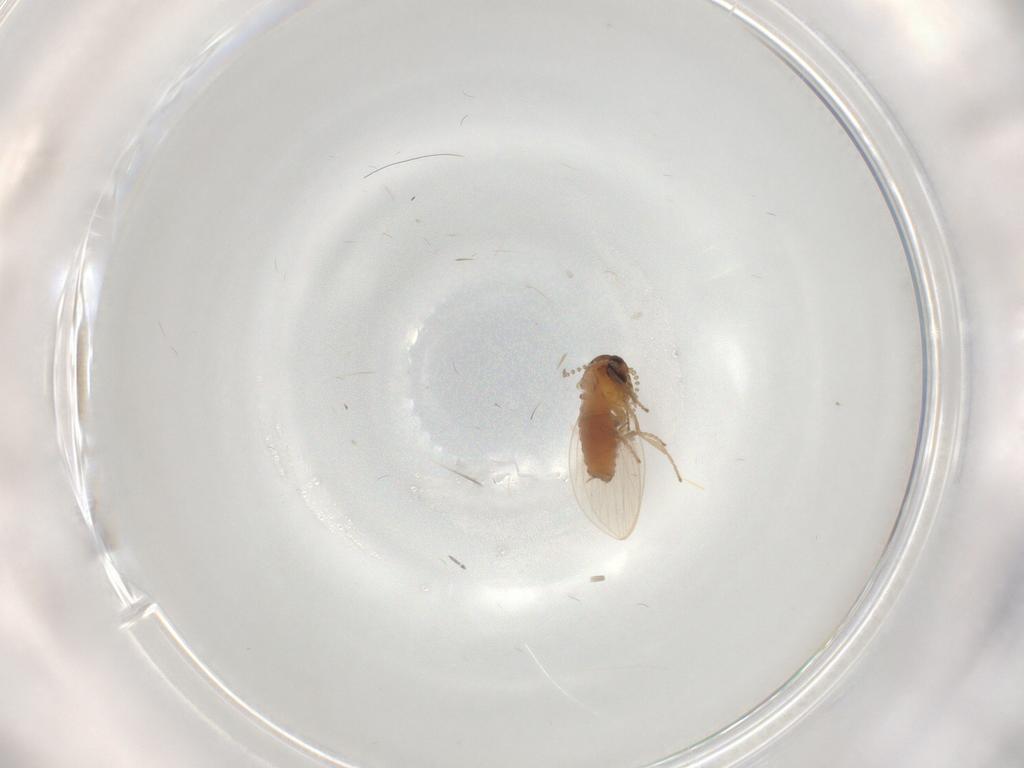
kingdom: Animalia
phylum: Arthropoda
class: Insecta
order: Diptera
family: Psychodidae
